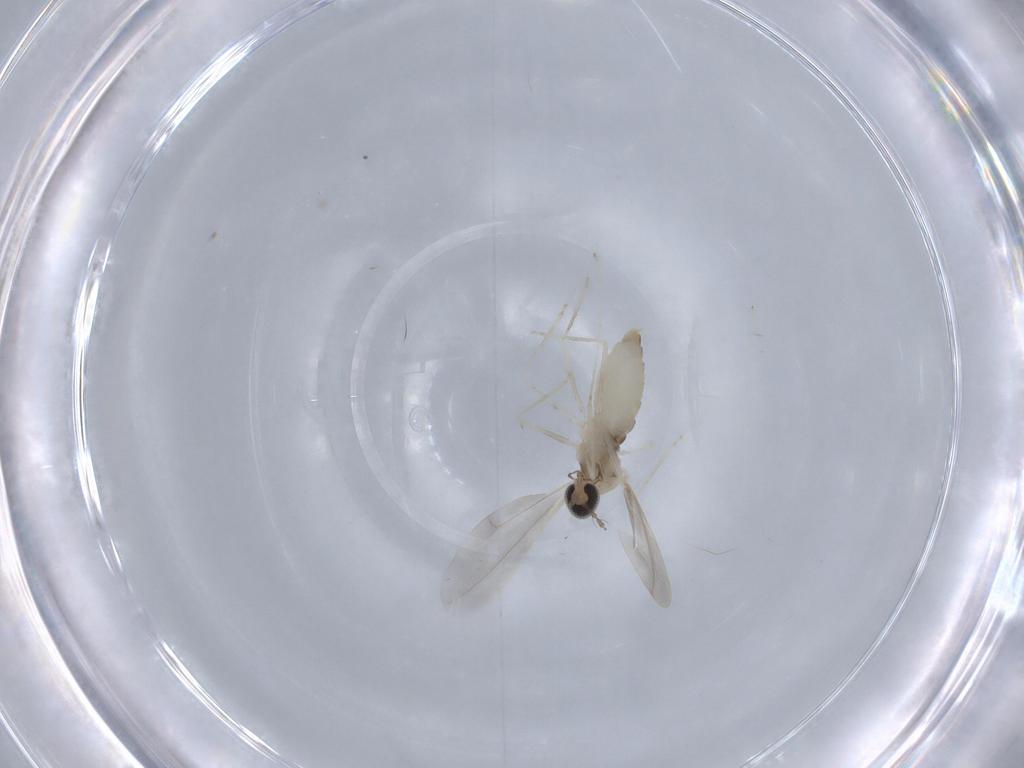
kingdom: Animalia
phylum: Arthropoda
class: Insecta
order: Diptera
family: Cecidomyiidae
